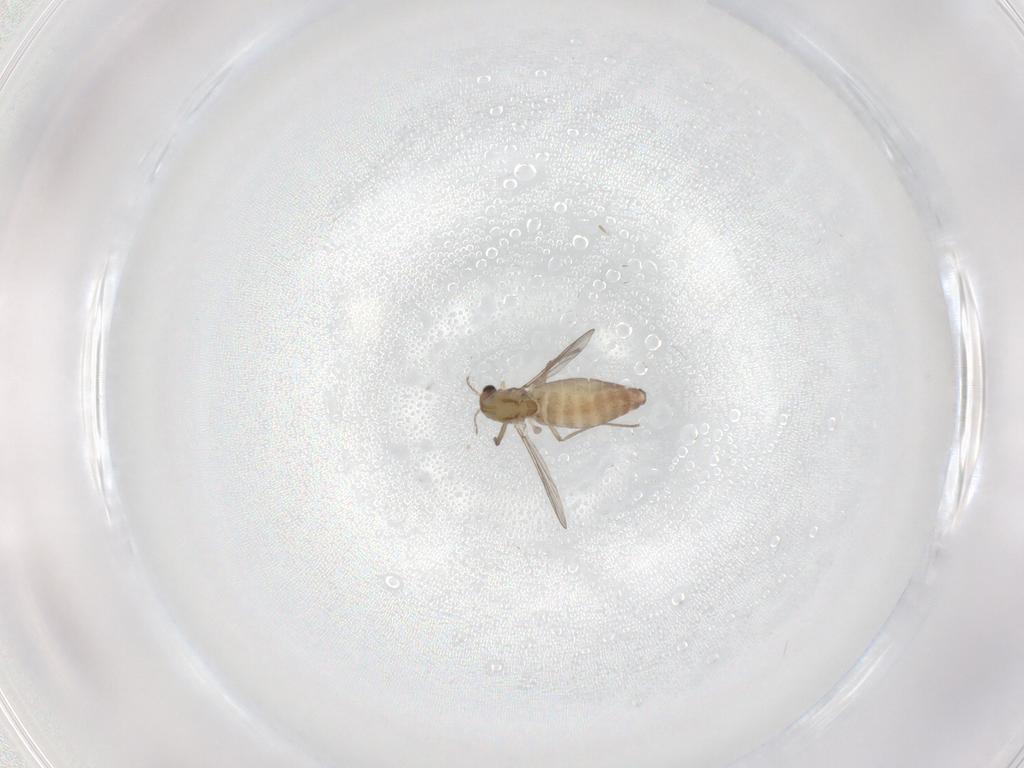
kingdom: Animalia
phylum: Arthropoda
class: Insecta
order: Diptera
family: Chironomidae
